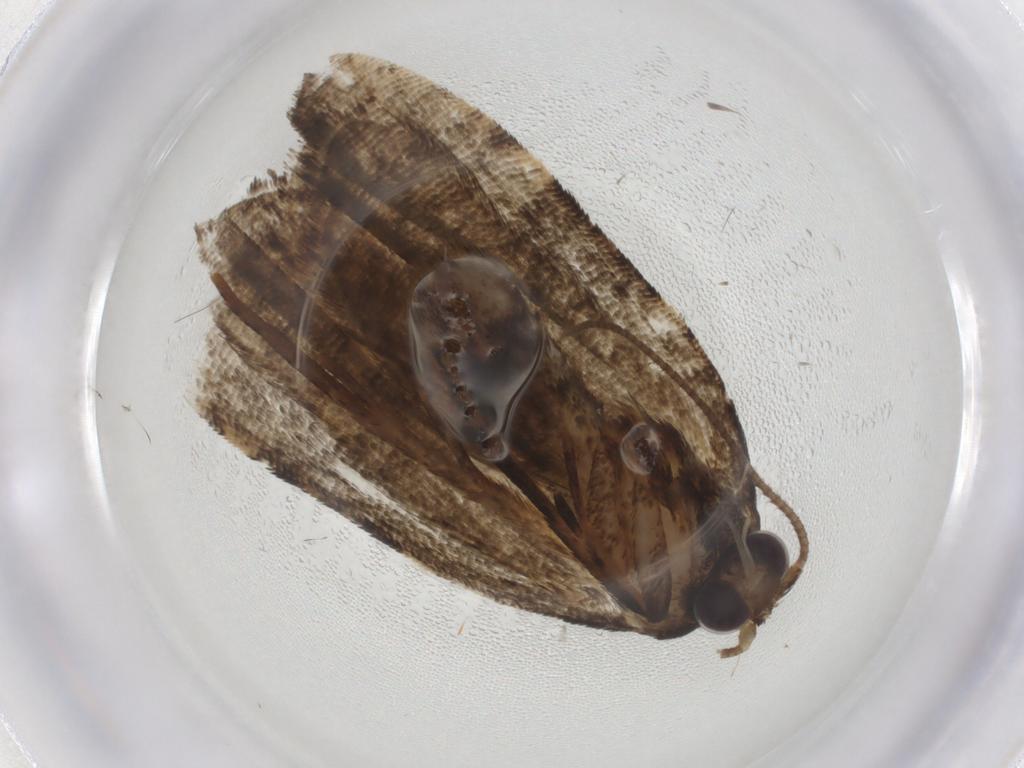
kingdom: Animalia
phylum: Arthropoda
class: Insecta
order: Lepidoptera
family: Tortricidae
